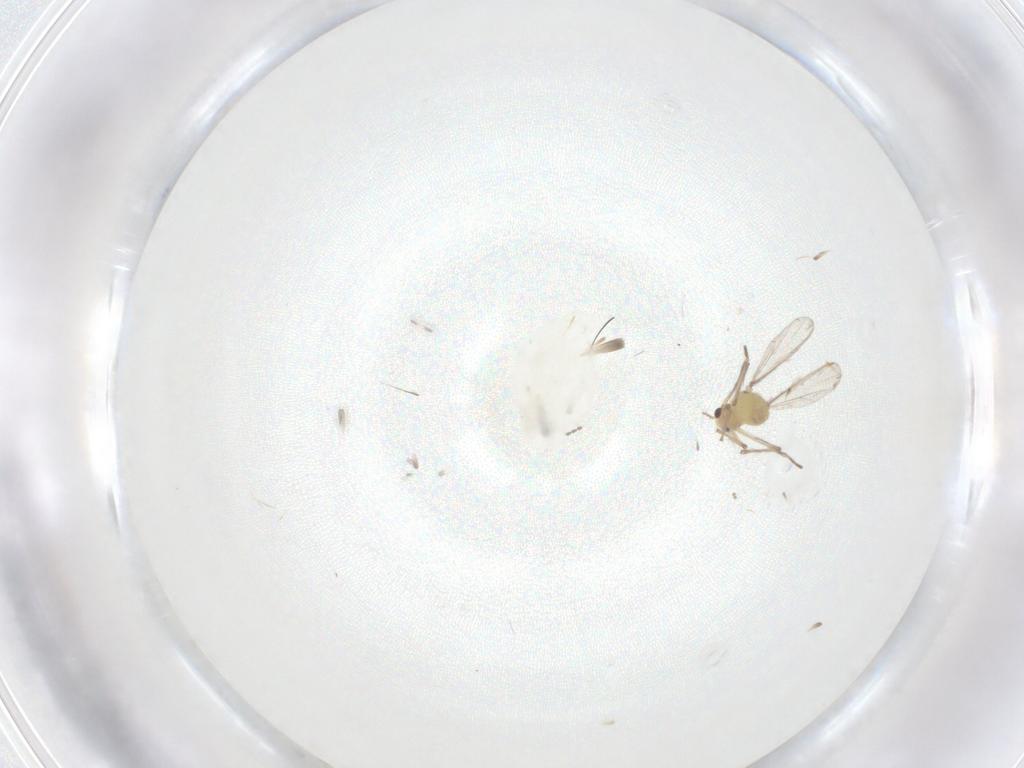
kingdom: Animalia
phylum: Arthropoda
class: Insecta
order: Diptera
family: Chironomidae
